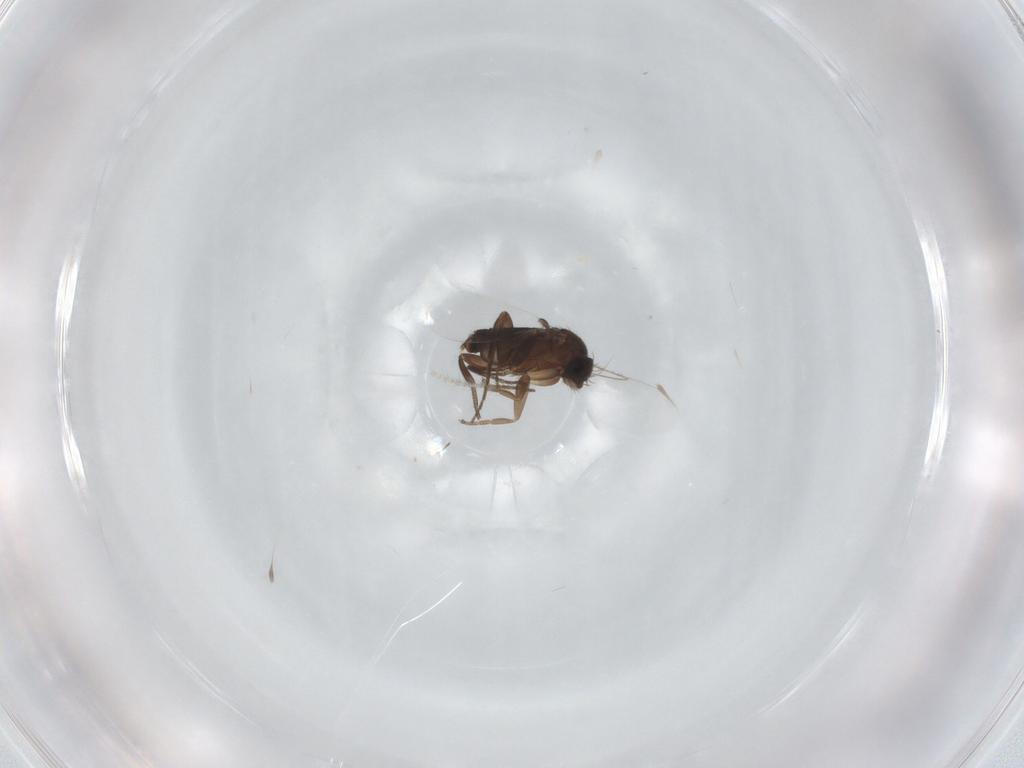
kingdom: Animalia
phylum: Arthropoda
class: Insecta
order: Diptera
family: Phoridae
